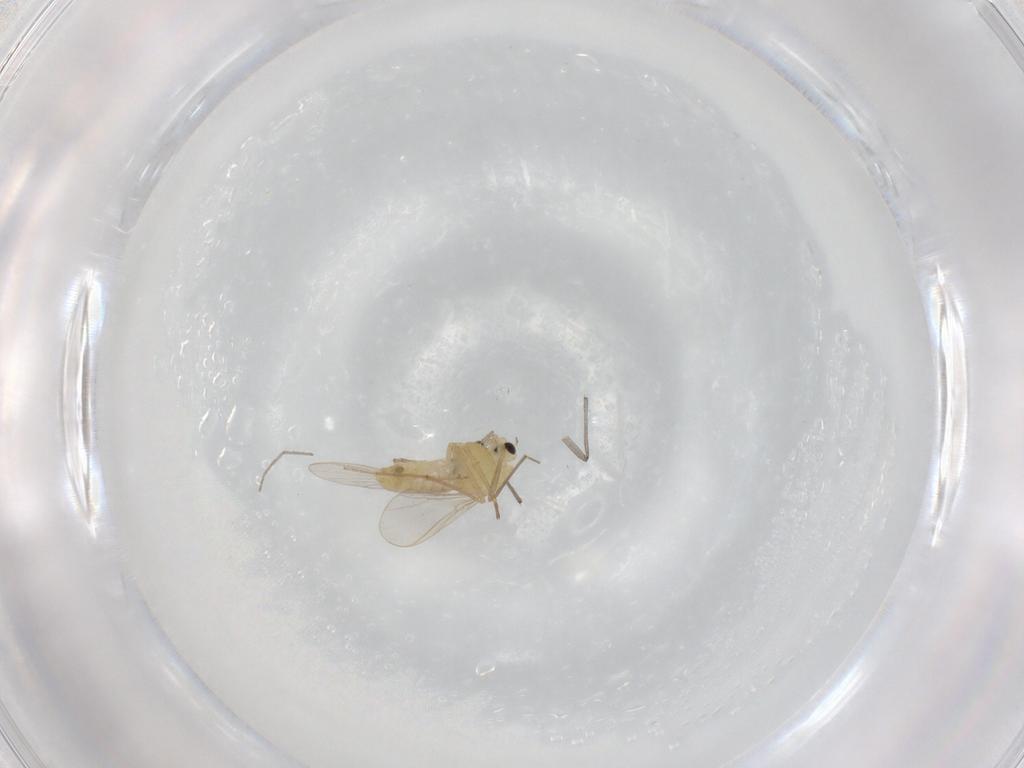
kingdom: Animalia
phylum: Arthropoda
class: Insecta
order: Diptera
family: Chironomidae
